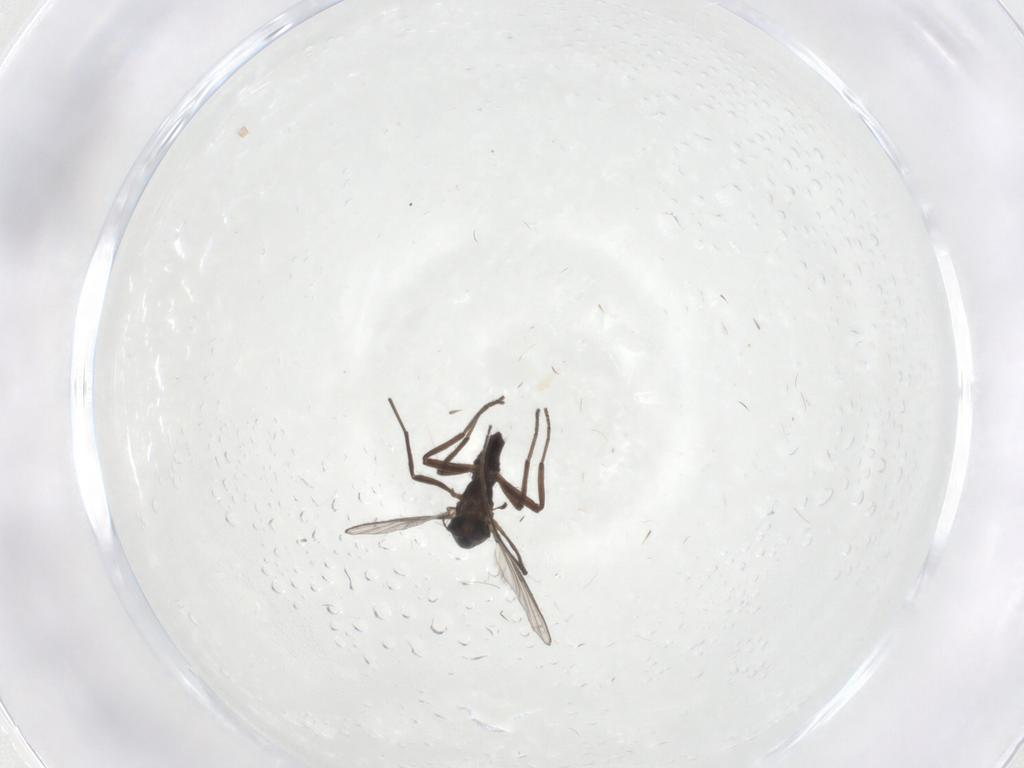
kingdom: Animalia
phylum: Arthropoda
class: Insecta
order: Diptera
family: Chironomidae
